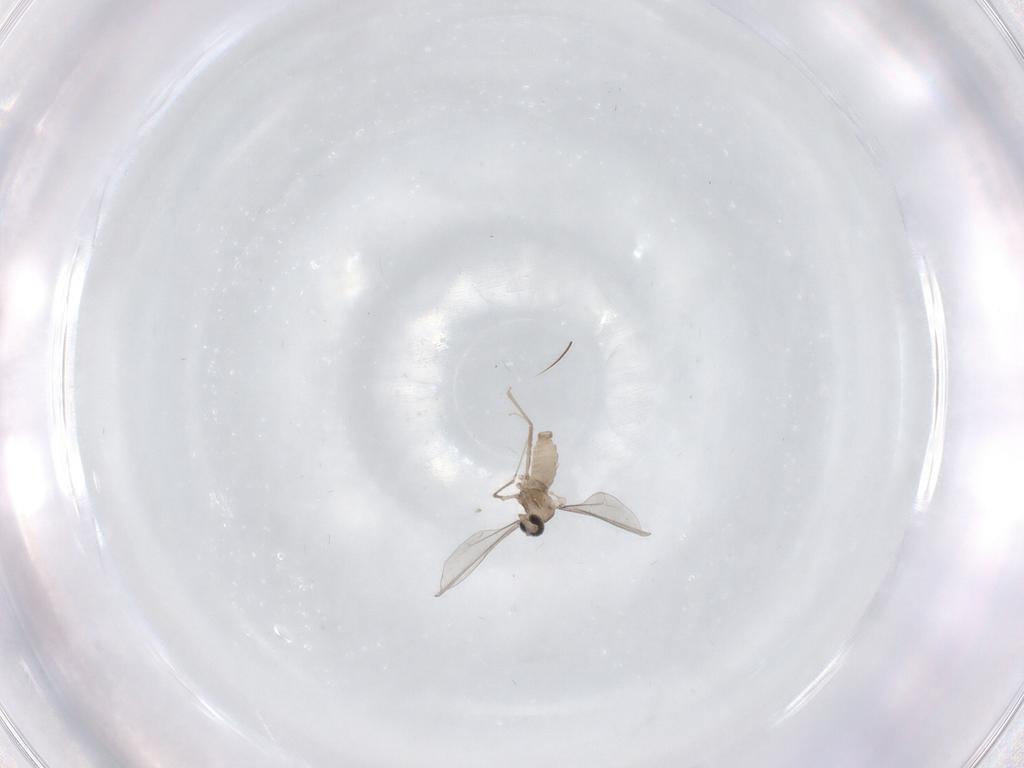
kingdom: Animalia
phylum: Arthropoda
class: Insecta
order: Diptera
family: Cecidomyiidae
